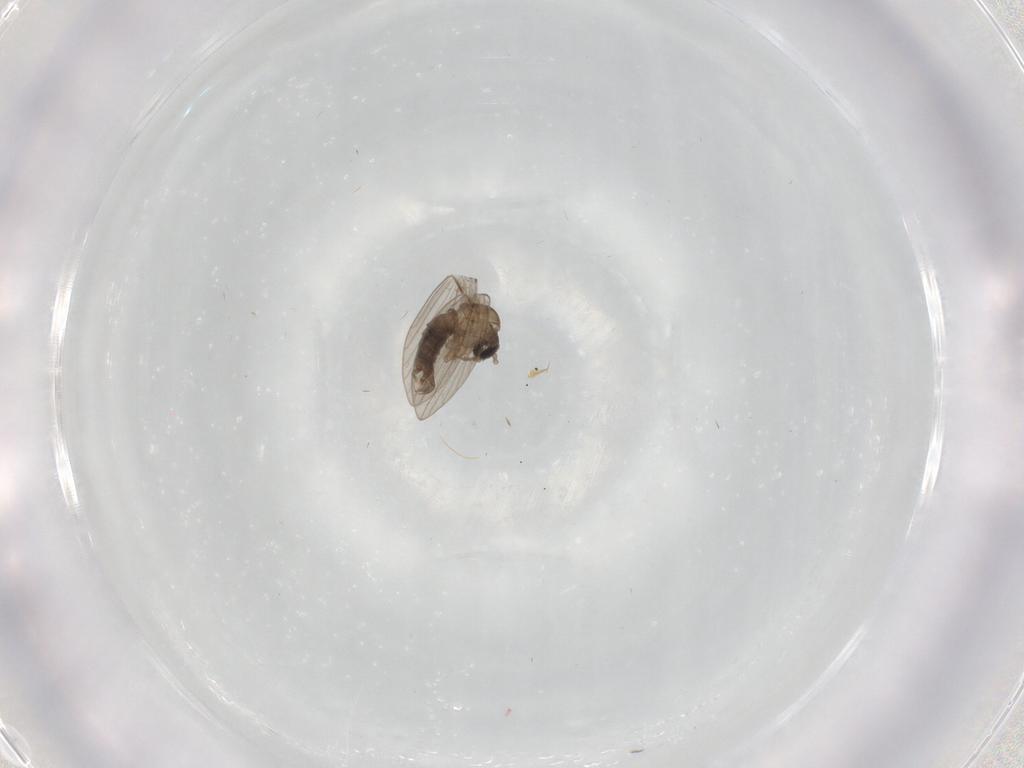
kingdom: Animalia
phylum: Arthropoda
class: Insecta
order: Diptera
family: Psychodidae
